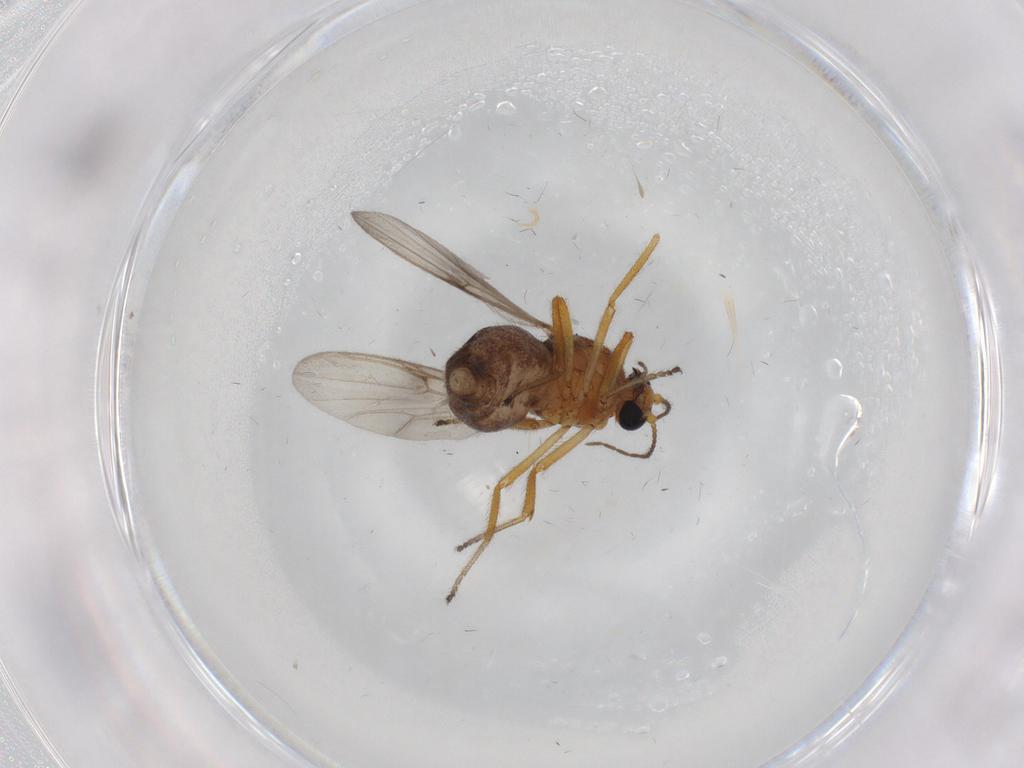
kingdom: Animalia
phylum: Arthropoda
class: Insecta
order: Diptera
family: Ceratopogonidae
